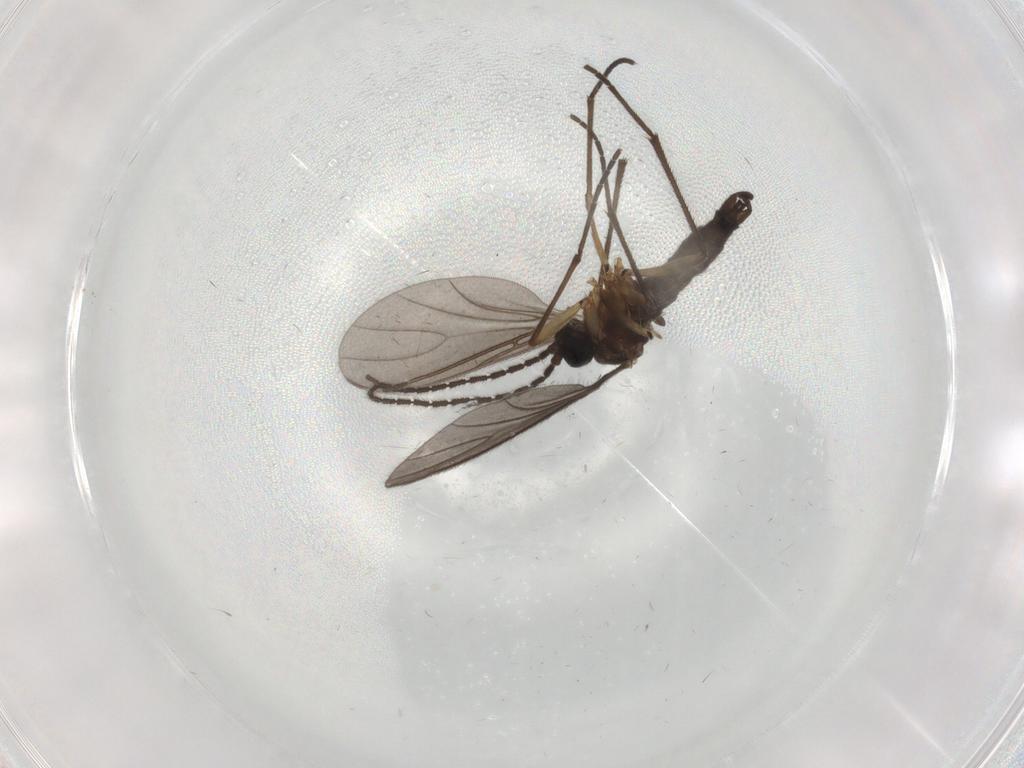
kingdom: Animalia
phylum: Arthropoda
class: Insecta
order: Diptera
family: Sciaridae
